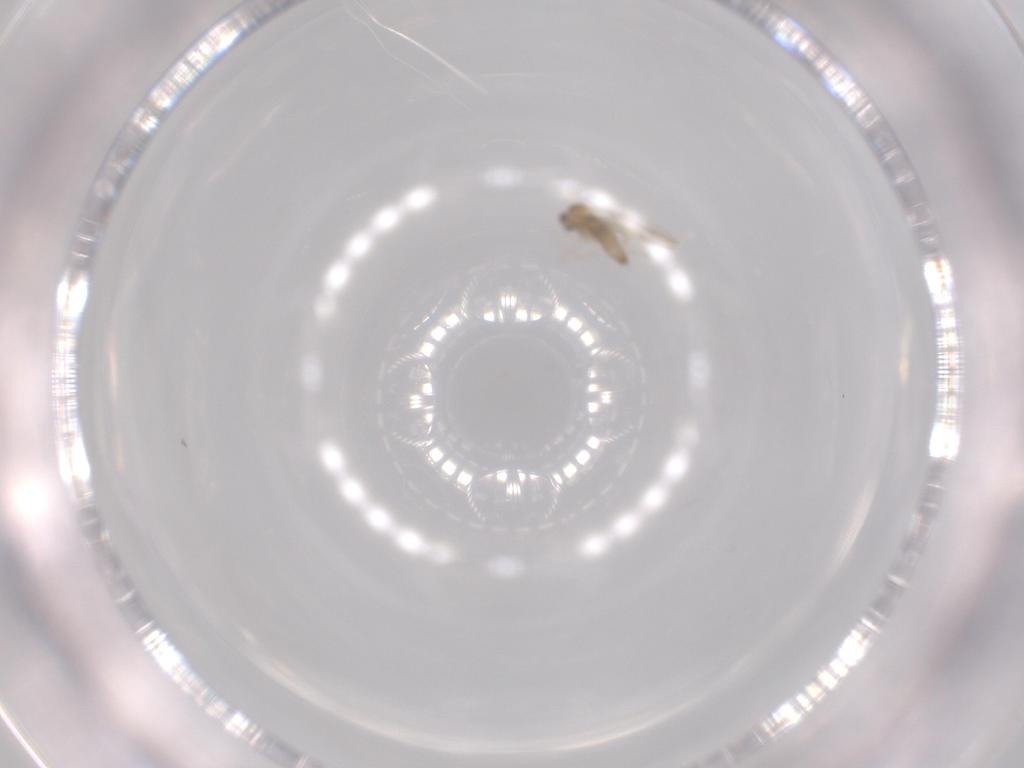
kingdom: Animalia
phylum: Arthropoda
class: Insecta
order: Diptera
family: Cecidomyiidae
